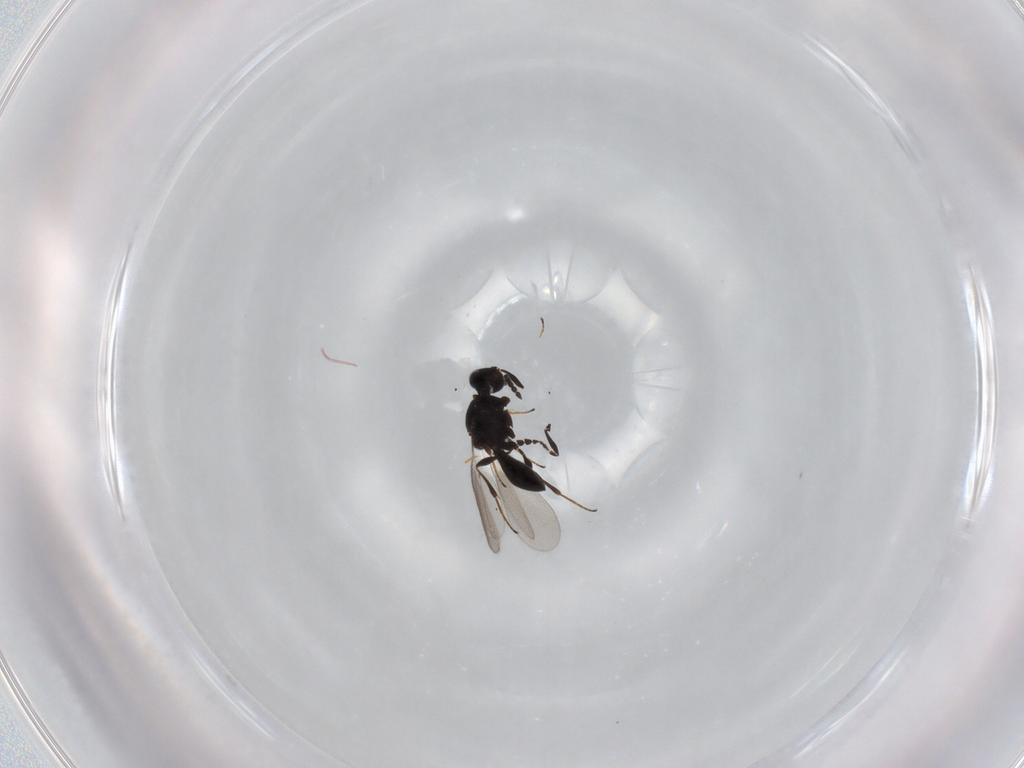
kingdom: Animalia
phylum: Arthropoda
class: Insecta
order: Hymenoptera
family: Platygastridae
